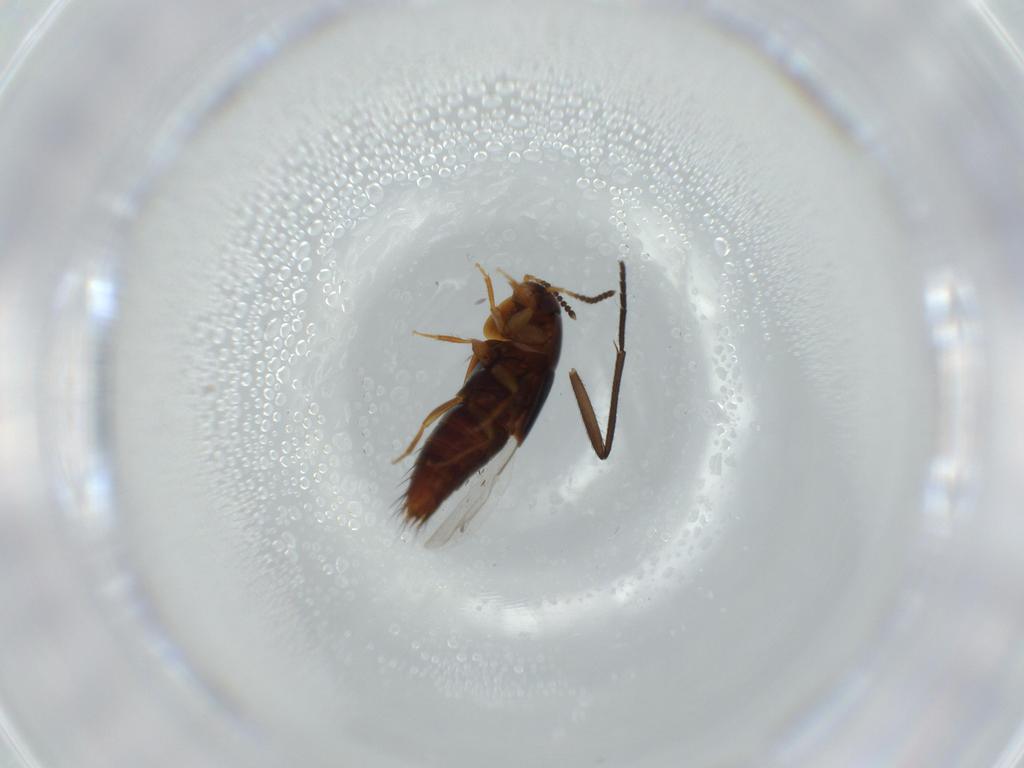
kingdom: Animalia
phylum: Arthropoda
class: Insecta
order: Coleoptera
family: Staphylinidae
